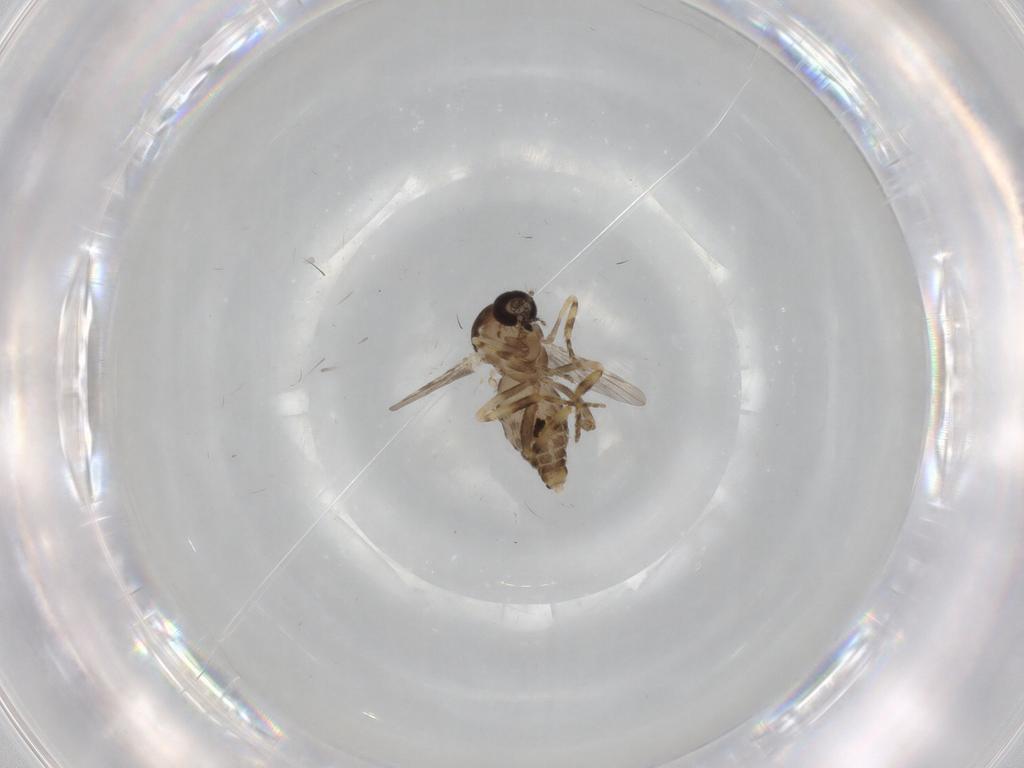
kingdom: Animalia
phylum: Arthropoda
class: Insecta
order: Diptera
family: Ceratopogonidae
